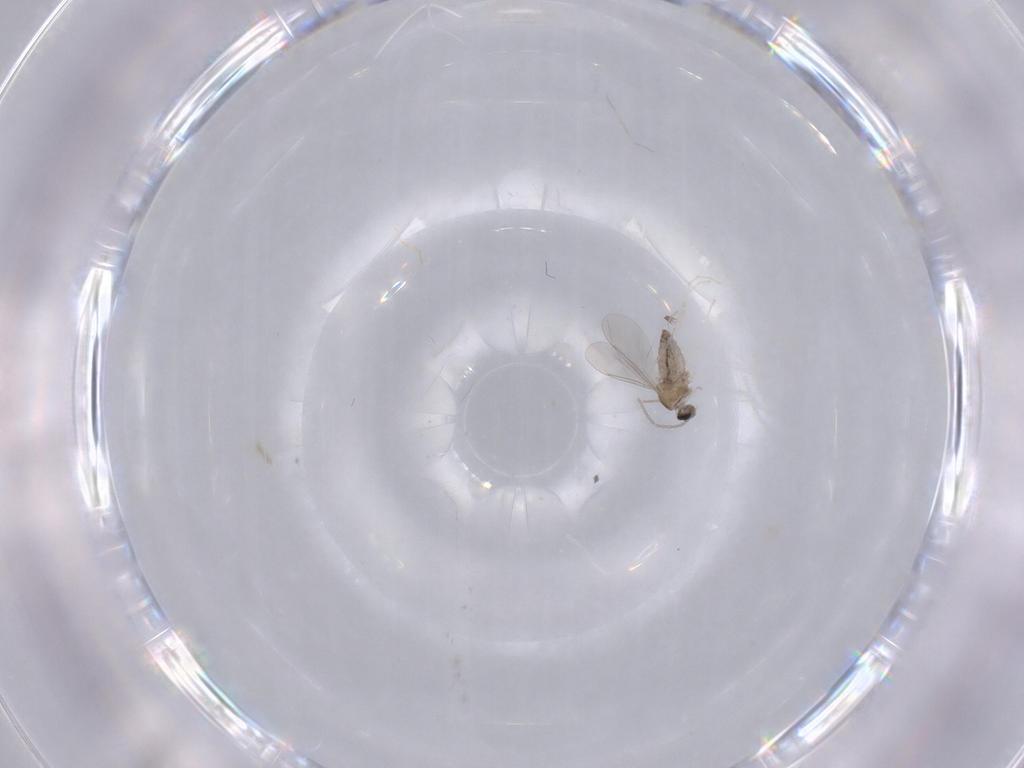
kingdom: Animalia
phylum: Arthropoda
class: Insecta
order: Diptera
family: Cecidomyiidae
